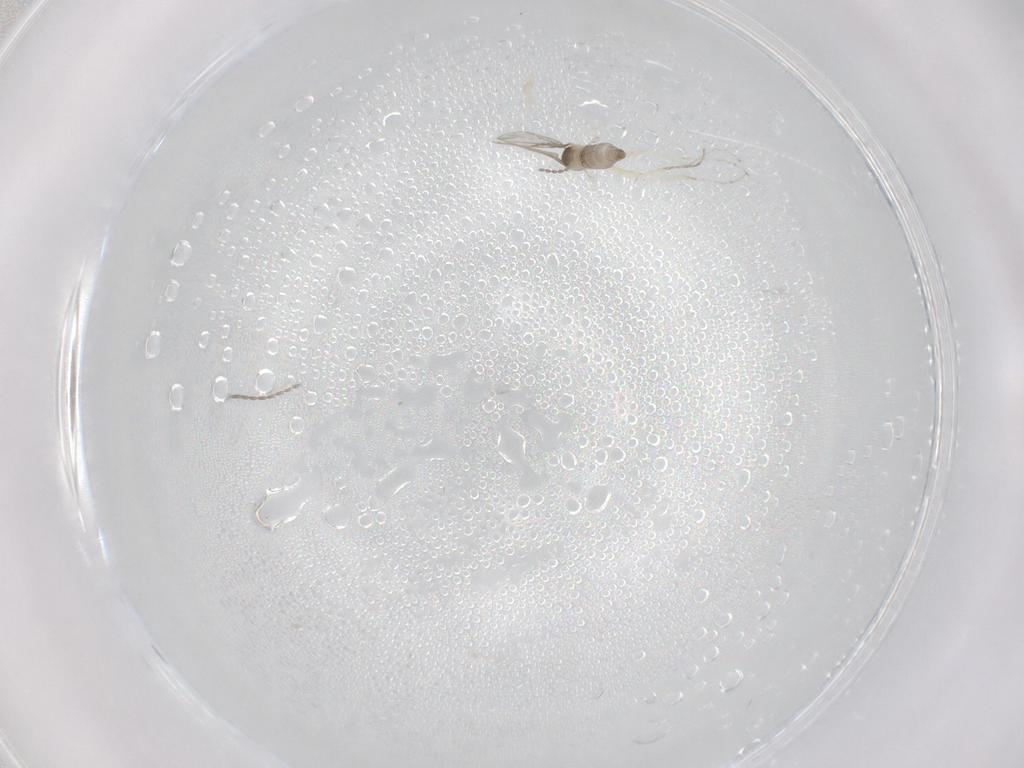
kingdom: Animalia
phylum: Arthropoda
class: Insecta
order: Diptera
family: Cecidomyiidae
